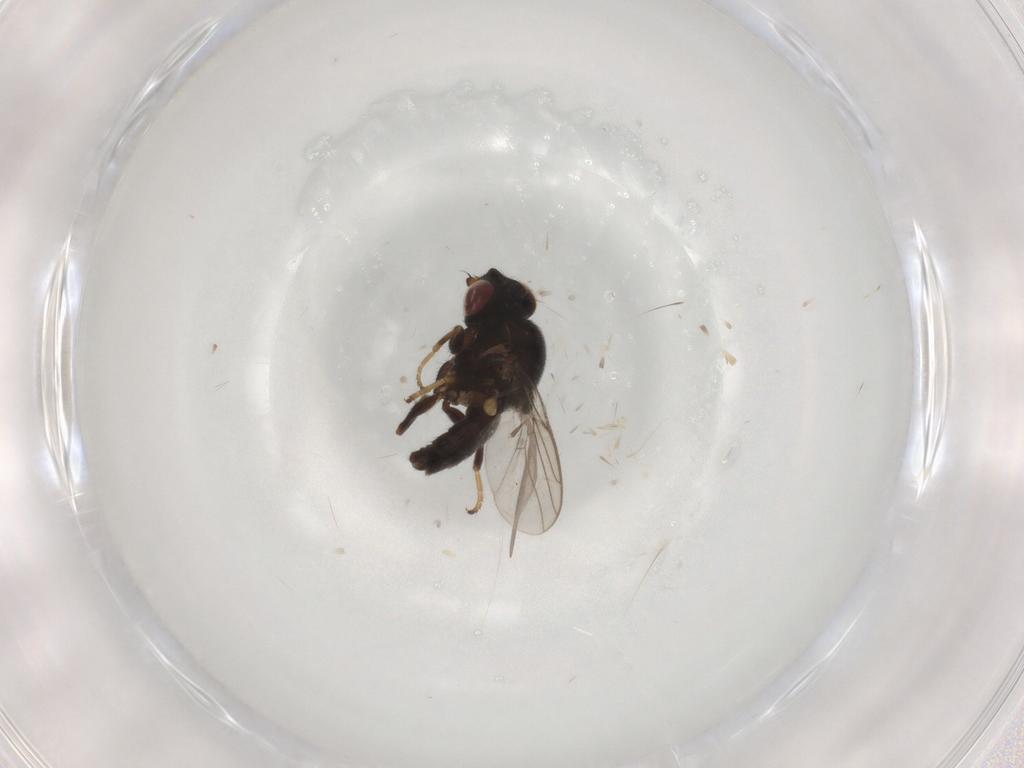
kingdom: Animalia
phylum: Arthropoda
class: Insecta
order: Diptera
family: Chloropidae
